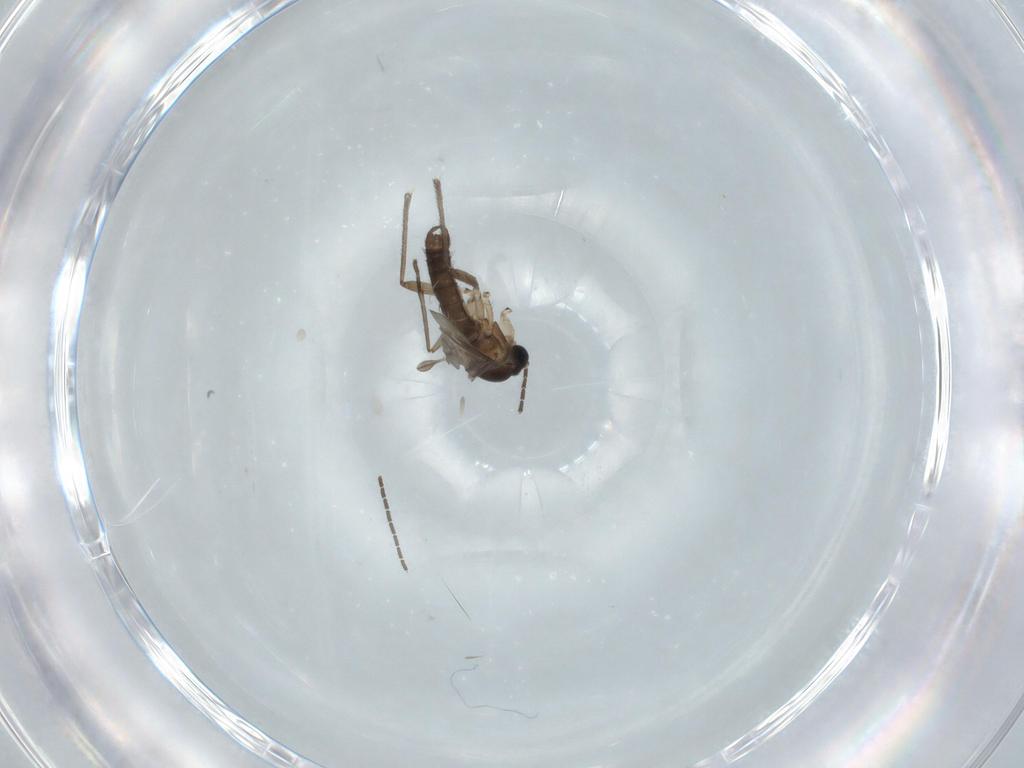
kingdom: Animalia
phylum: Arthropoda
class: Insecta
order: Diptera
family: Sciaridae
